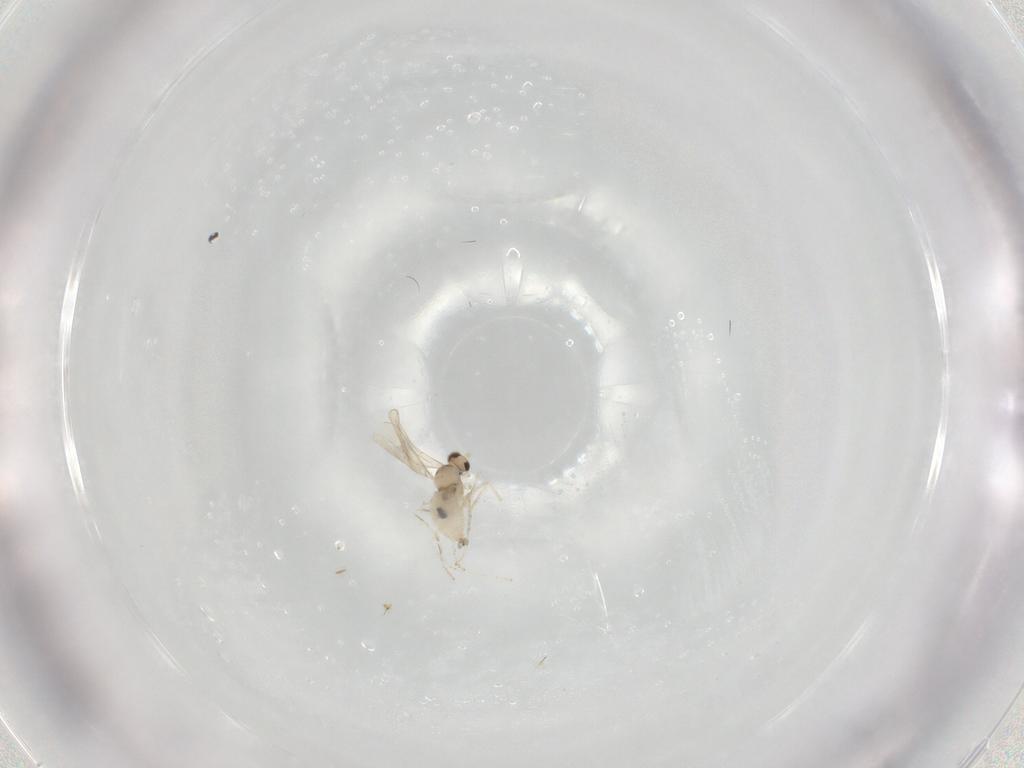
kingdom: Animalia
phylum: Arthropoda
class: Insecta
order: Diptera
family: Cecidomyiidae
